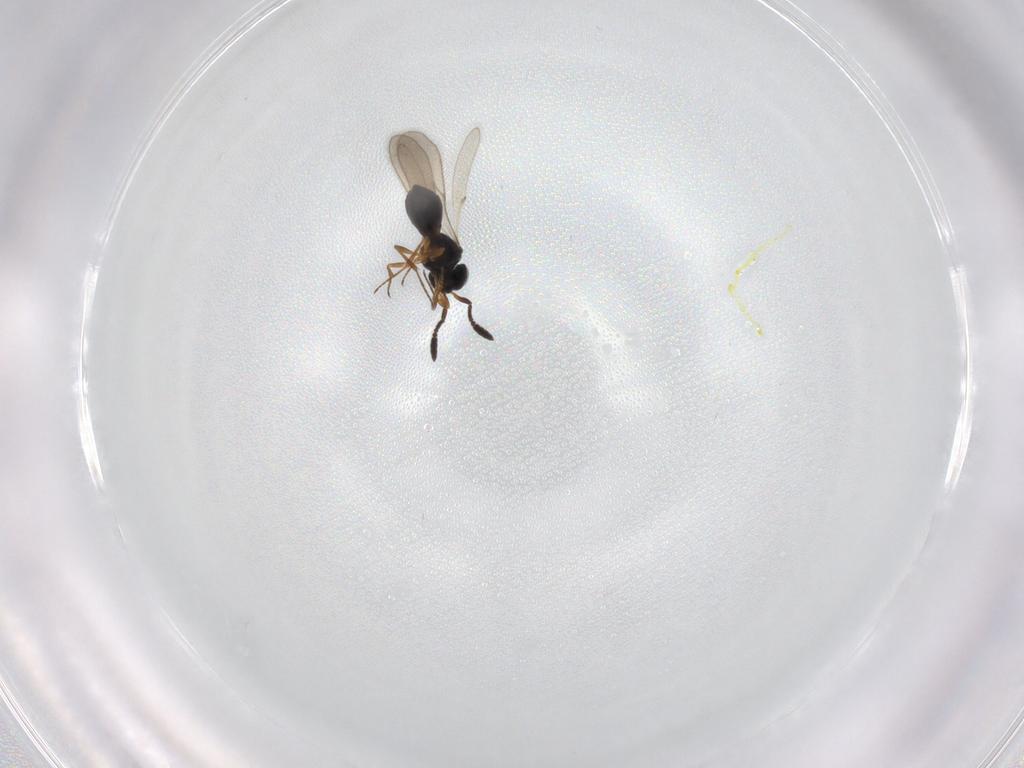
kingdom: Animalia
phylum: Arthropoda
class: Insecta
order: Hymenoptera
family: Scelionidae
